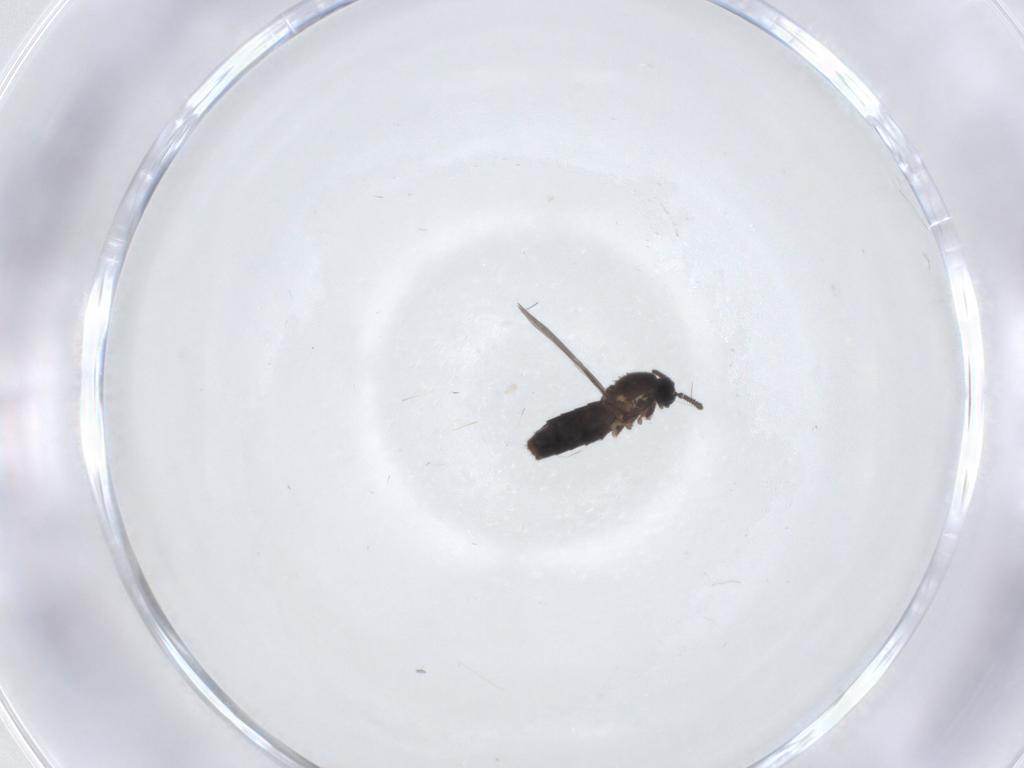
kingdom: Animalia
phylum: Arthropoda
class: Insecta
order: Diptera
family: Scatopsidae
